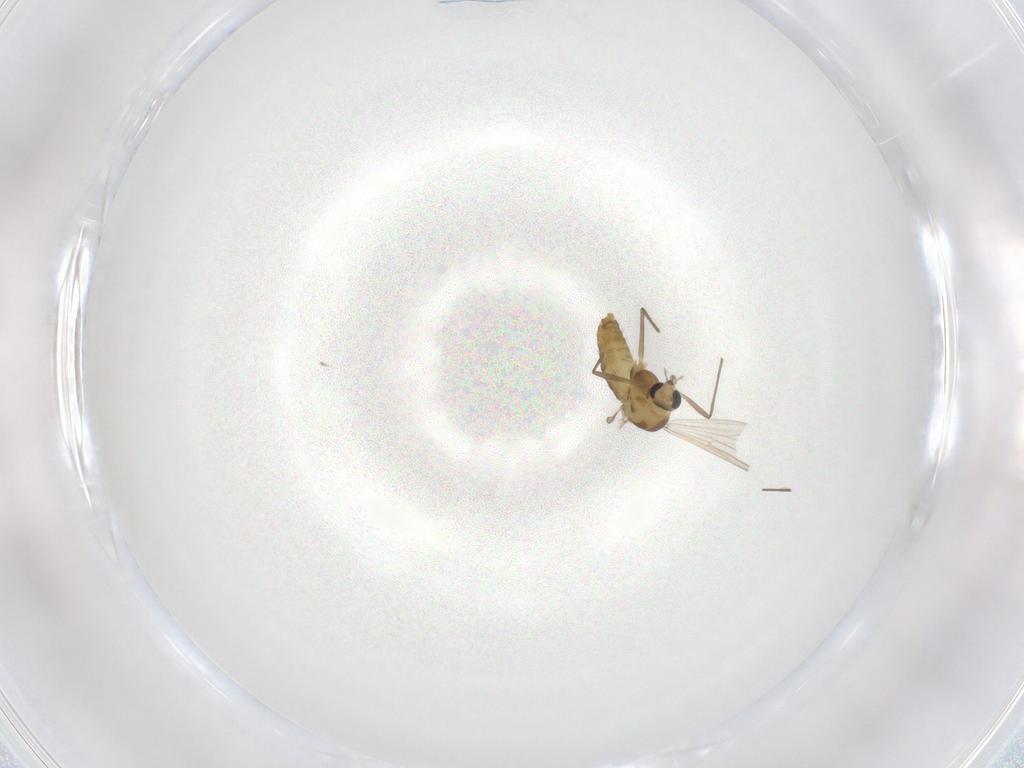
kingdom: Animalia
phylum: Arthropoda
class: Insecta
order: Diptera
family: Chironomidae
